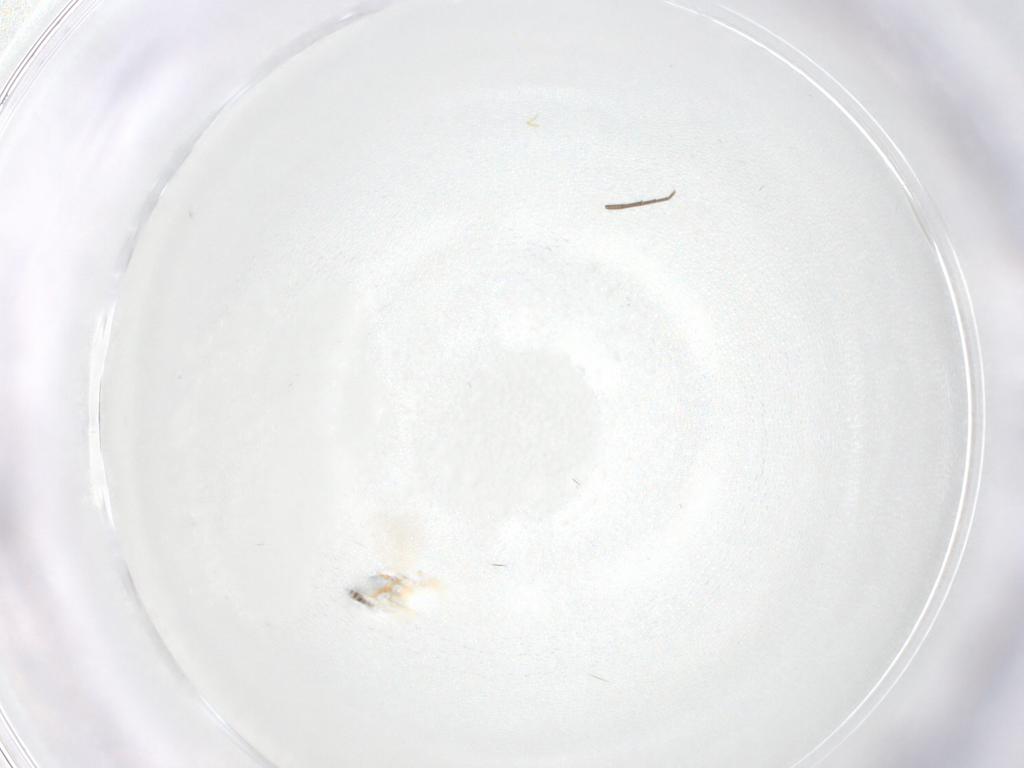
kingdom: Animalia
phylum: Arthropoda
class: Insecta
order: Diptera
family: Phoridae
